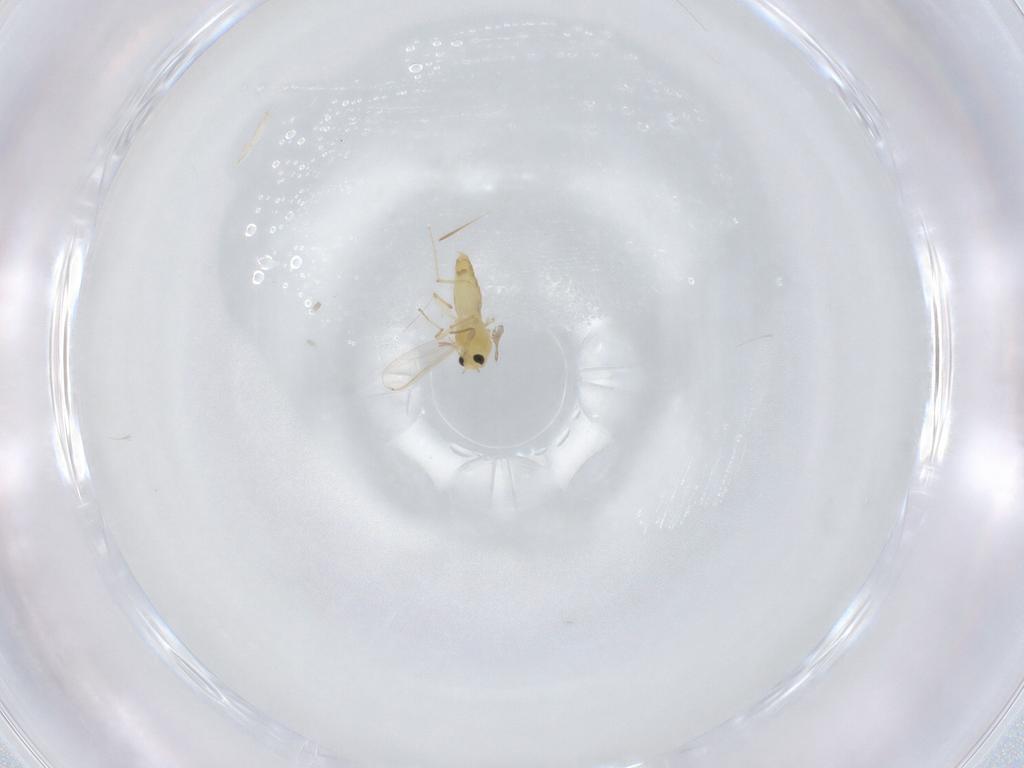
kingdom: Animalia
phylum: Arthropoda
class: Insecta
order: Diptera
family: Chironomidae
